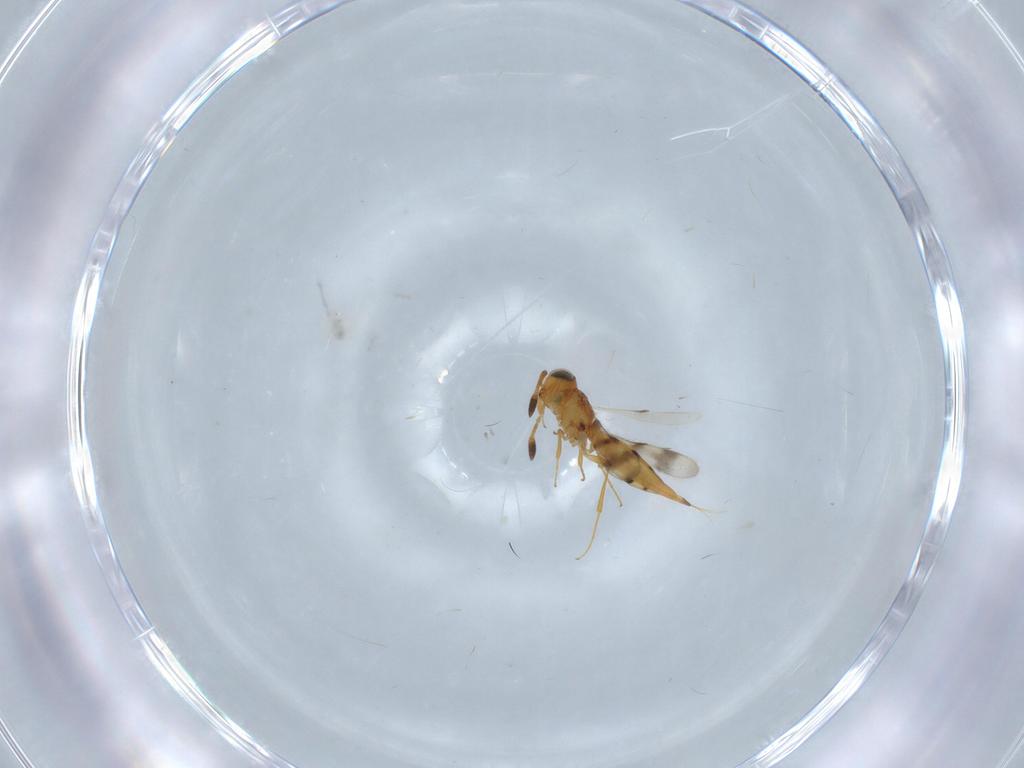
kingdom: Animalia
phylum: Arthropoda
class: Insecta
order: Hymenoptera
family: Scelionidae
